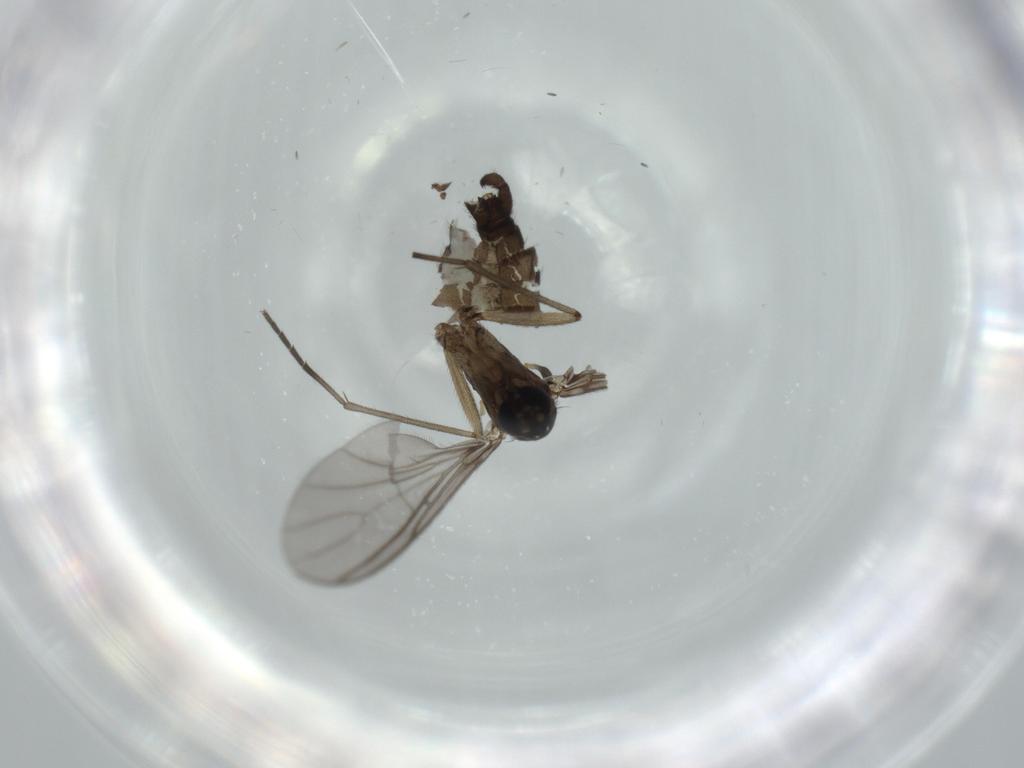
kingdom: Animalia
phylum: Arthropoda
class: Insecta
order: Diptera
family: Sciaridae
